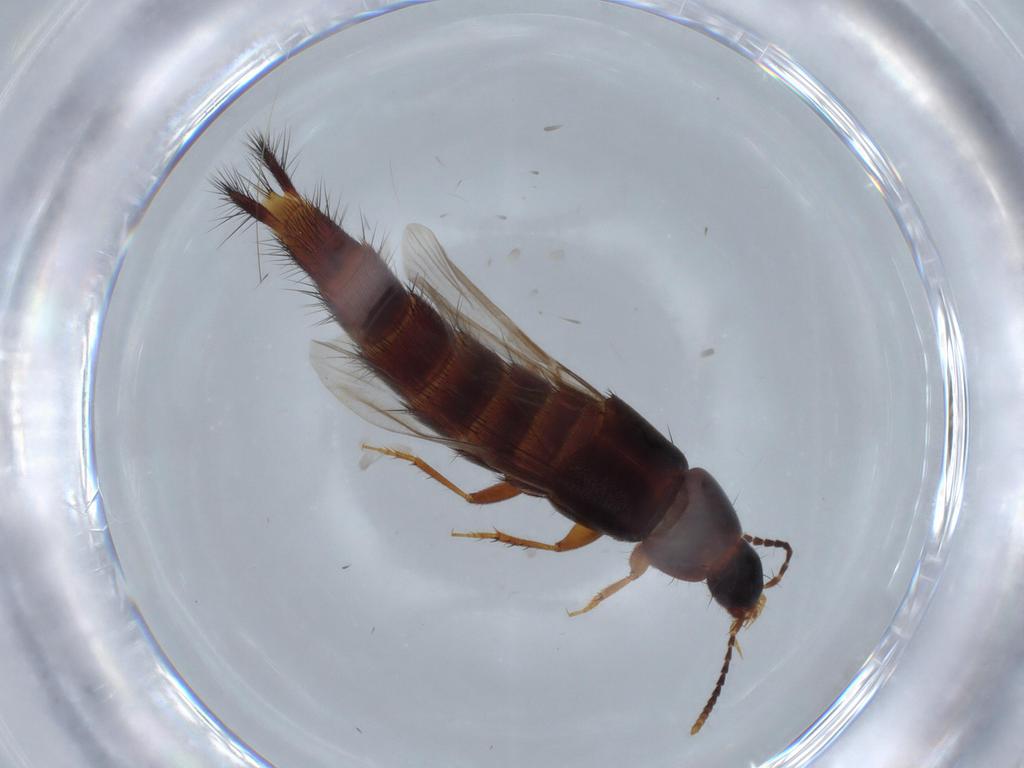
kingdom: Animalia
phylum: Arthropoda
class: Insecta
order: Coleoptera
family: Staphylinidae
